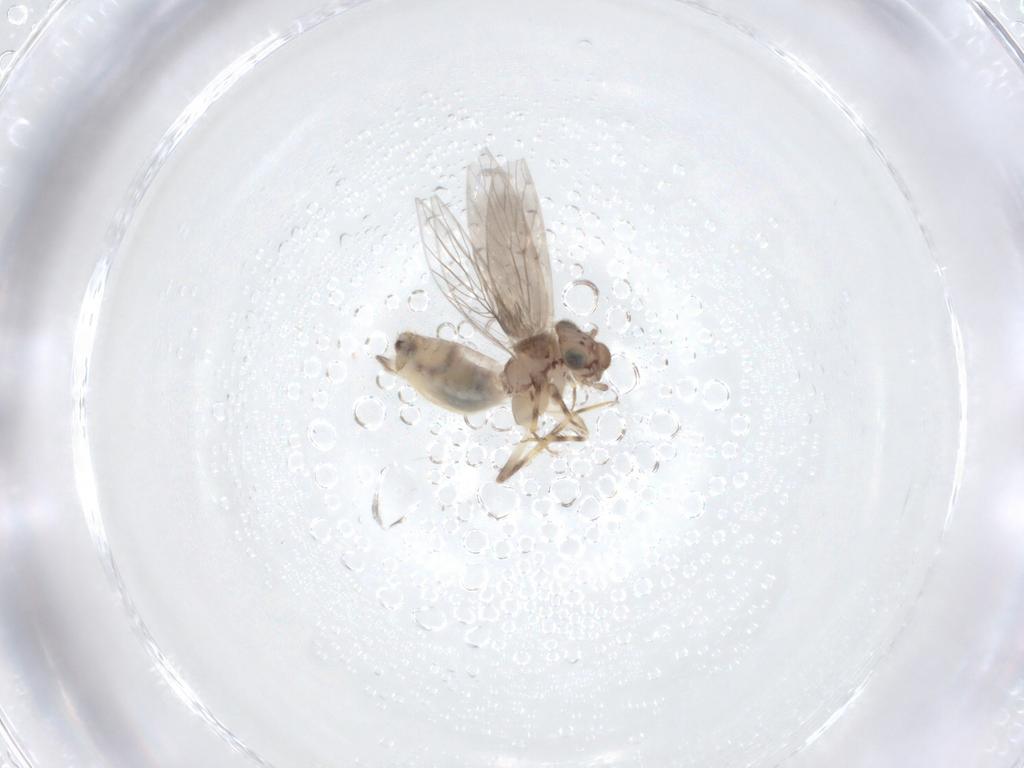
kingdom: Animalia
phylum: Arthropoda
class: Insecta
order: Psocodea
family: Lepidopsocidae
